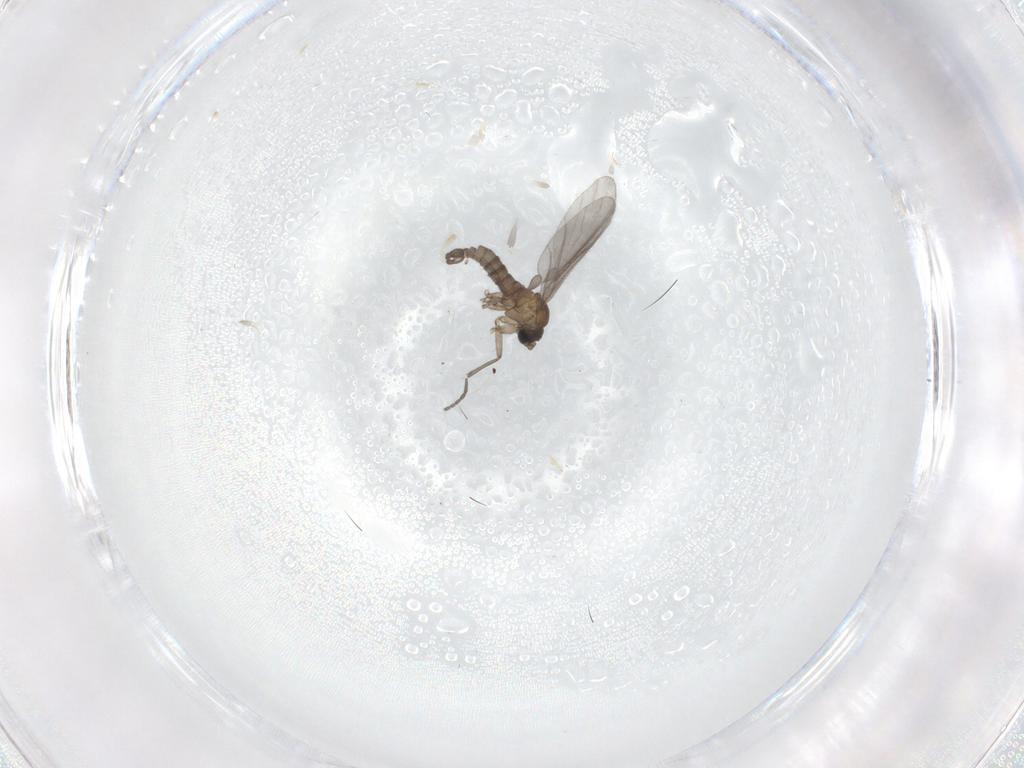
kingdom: Animalia
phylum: Arthropoda
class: Insecta
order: Diptera
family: Sciaridae
